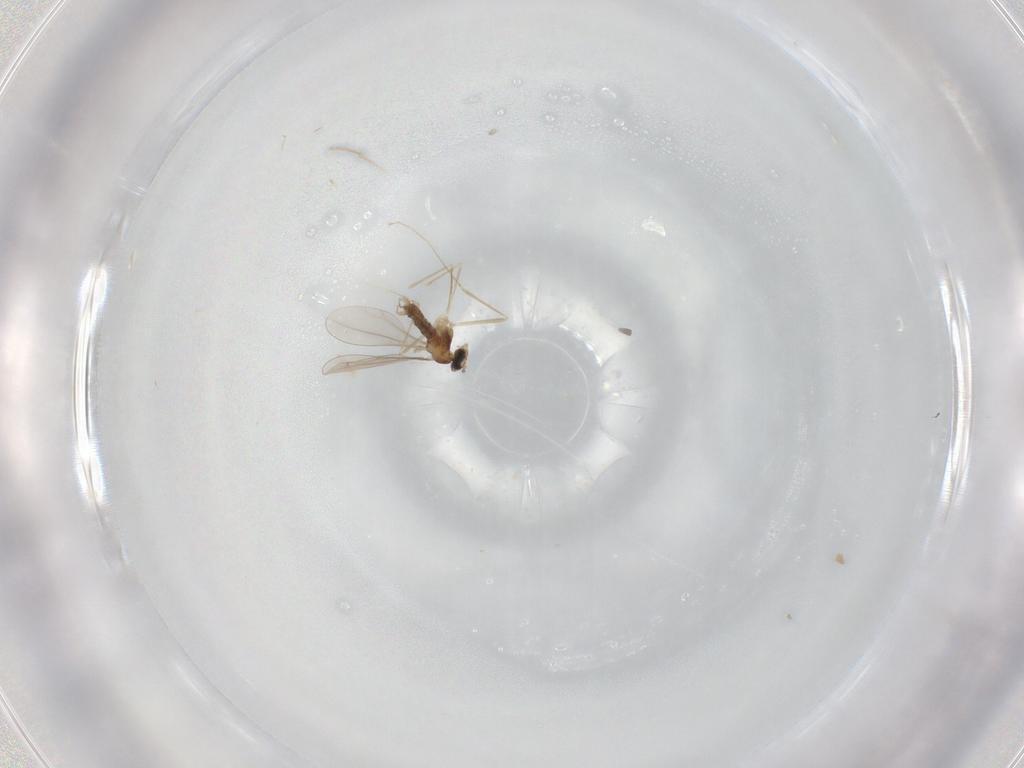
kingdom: Animalia
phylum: Arthropoda
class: Insecta
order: Diptera
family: Cecidomyiidae
